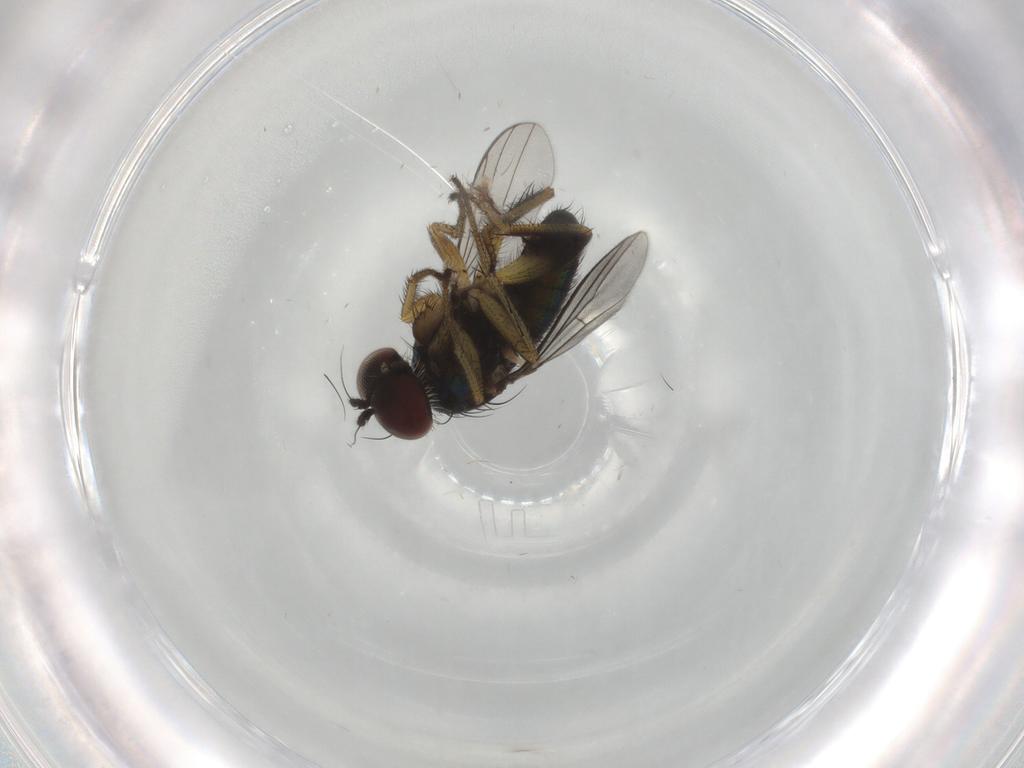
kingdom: Animalia
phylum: Arthropoda
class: Insecta
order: Diptera
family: Dolichopodidae
